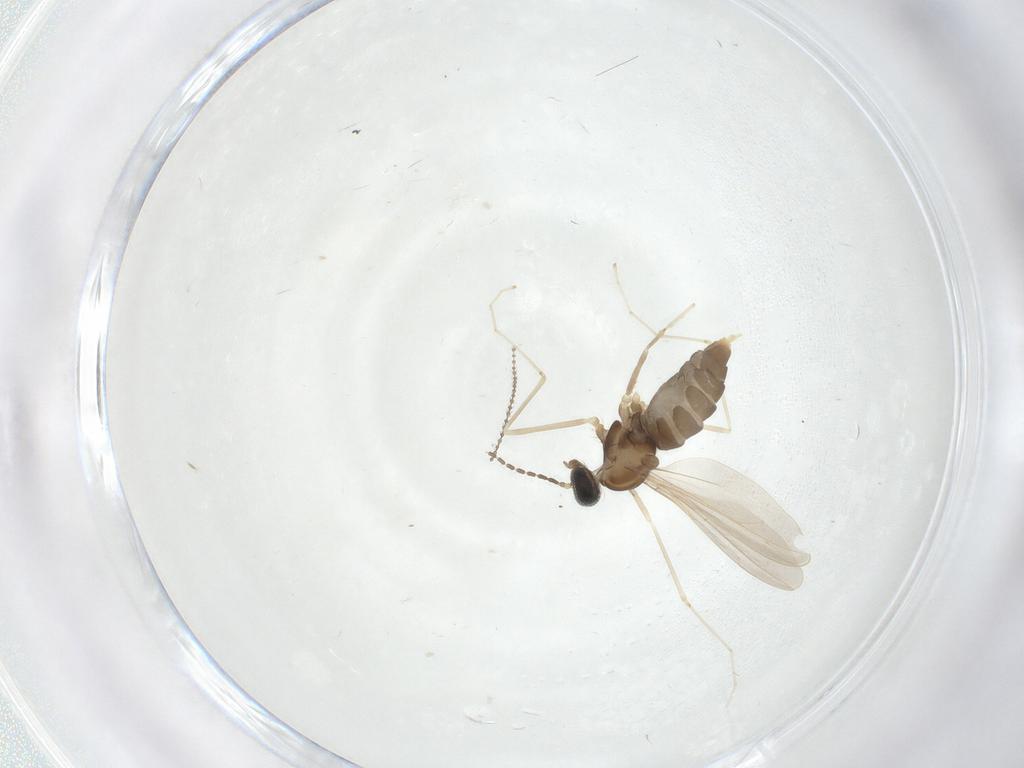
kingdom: Animalia
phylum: Arthropoda
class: Insecta
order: Diptera
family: Cecidomyiidae
